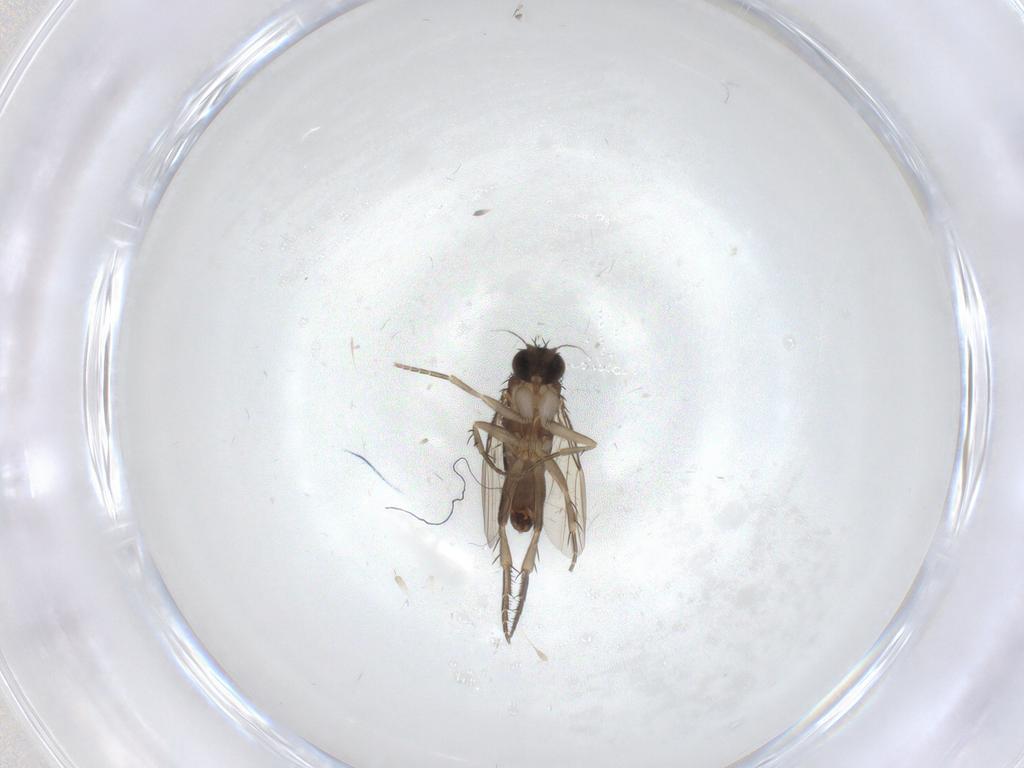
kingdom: Animalia
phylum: Arthropoda
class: Insecta
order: Diptera
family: Phoridae
